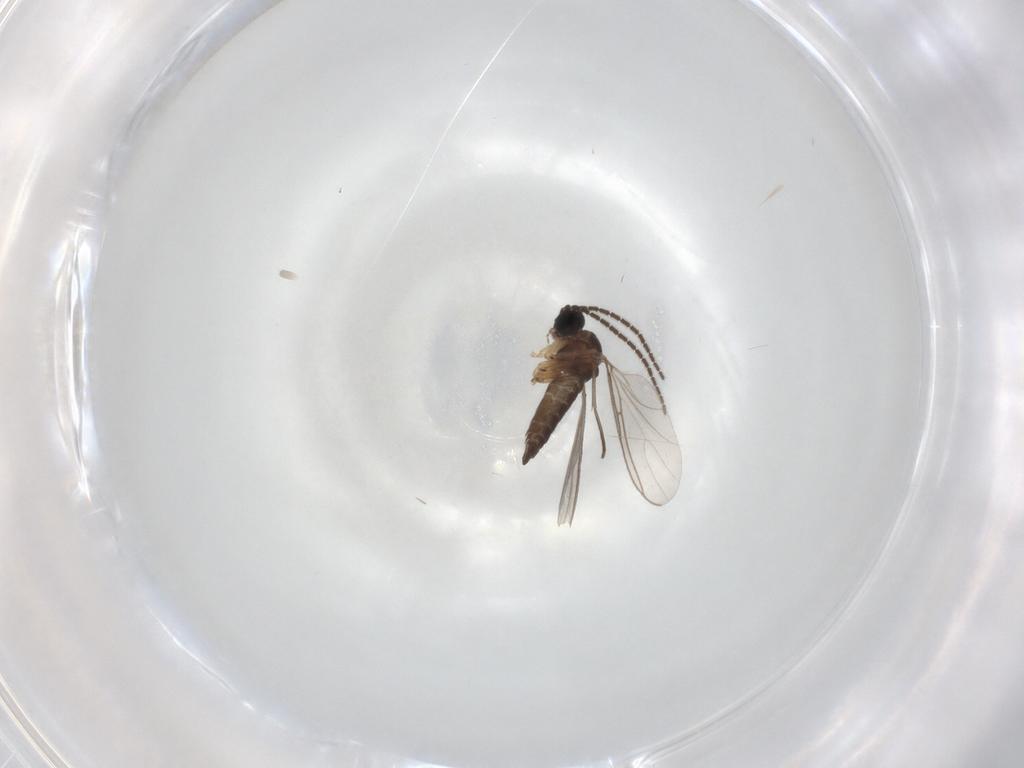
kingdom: Animalia
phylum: Arthropoda
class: Insecta
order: Diptera
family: Sciaridae
